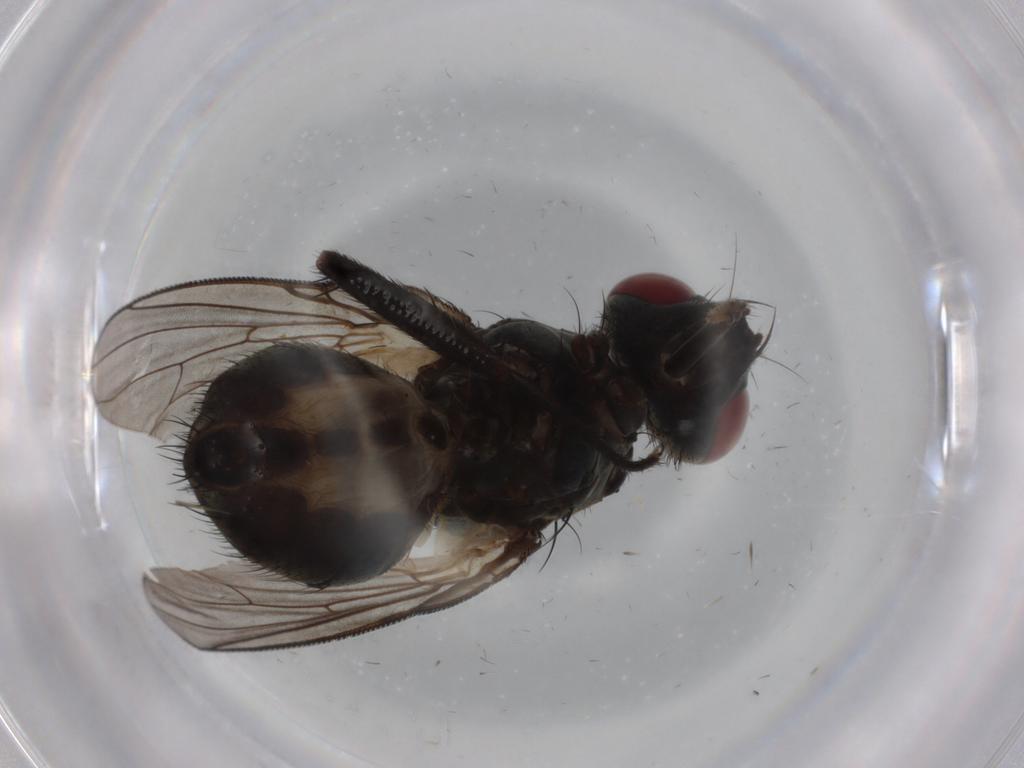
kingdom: Animalia
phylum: Arthropoda
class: Insecta
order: Diptera
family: Muscidae
